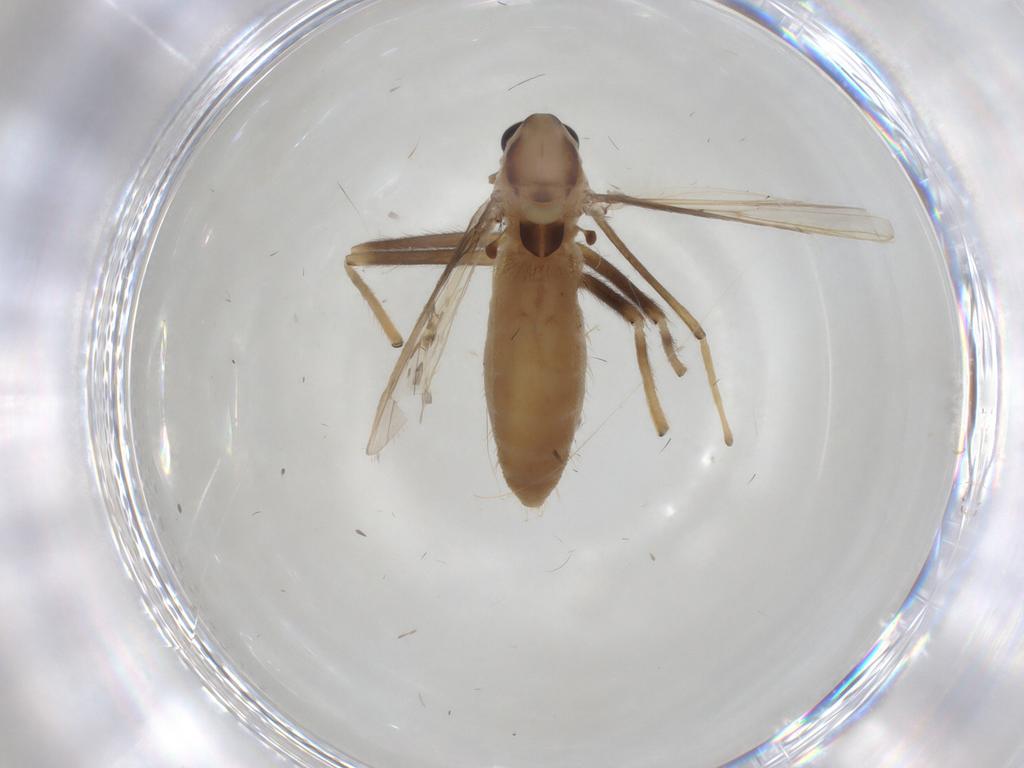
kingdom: Animalia
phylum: Arthropoda
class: Insecta
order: Diptera
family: Chironomidae
